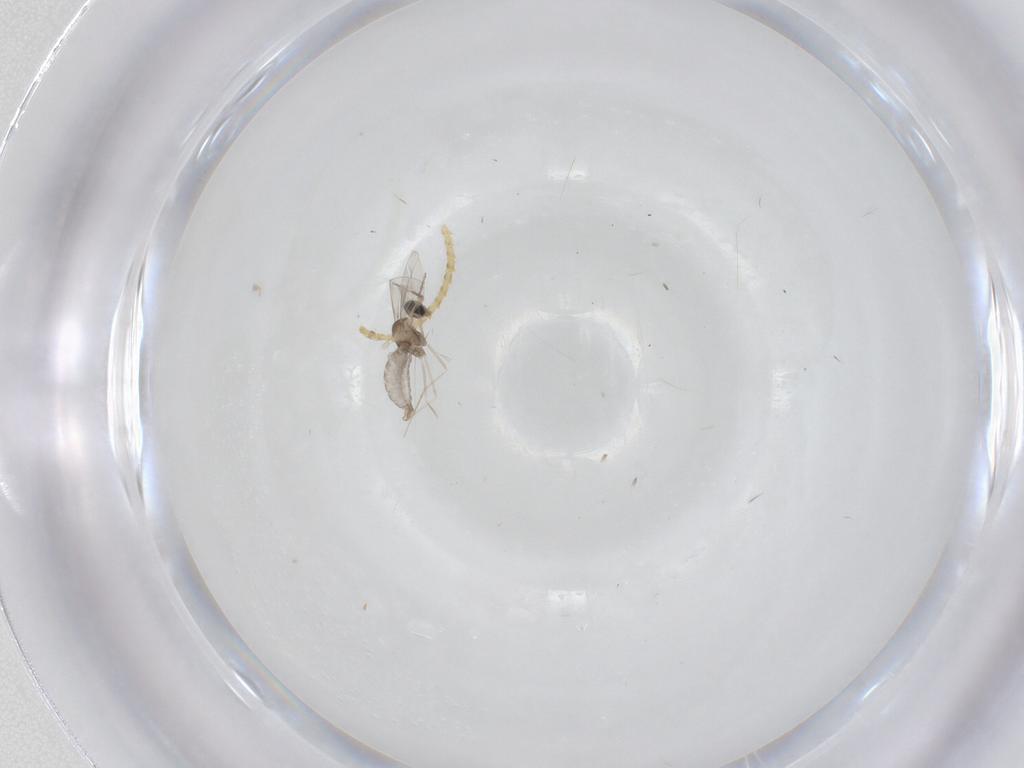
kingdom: Animalia
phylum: Arthropoda
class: Insecta
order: Diptera
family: Cecidomyiidae
